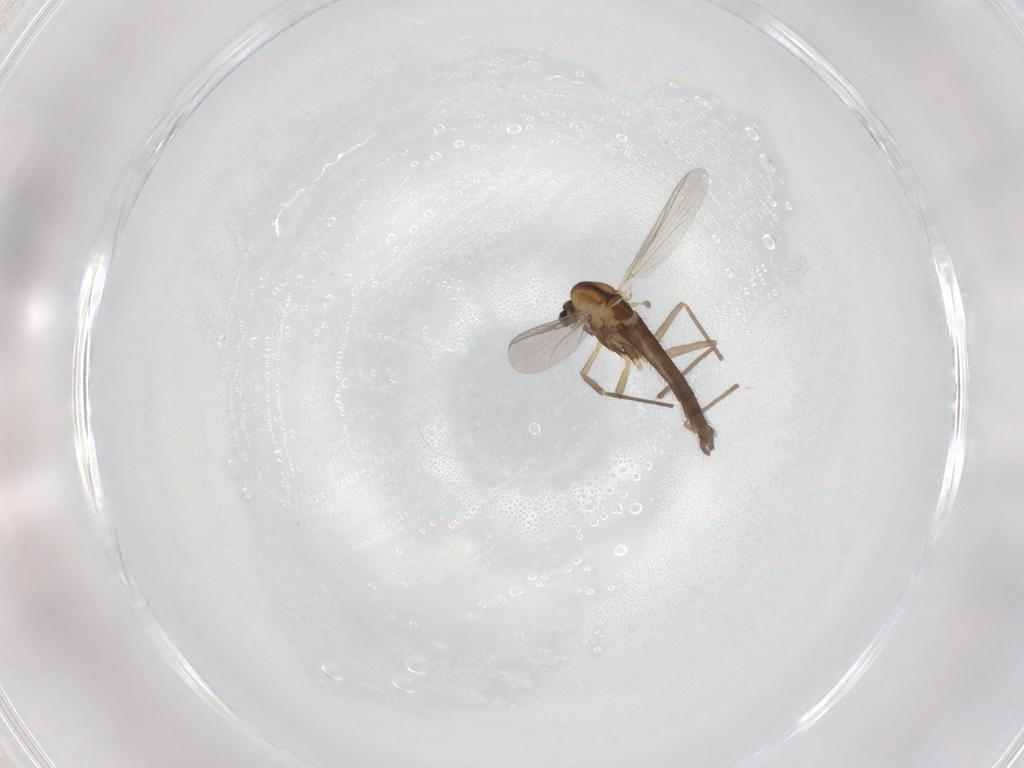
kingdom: Animalia
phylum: Arthropoda
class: Insecta
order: Diptera
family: Chironomidae
